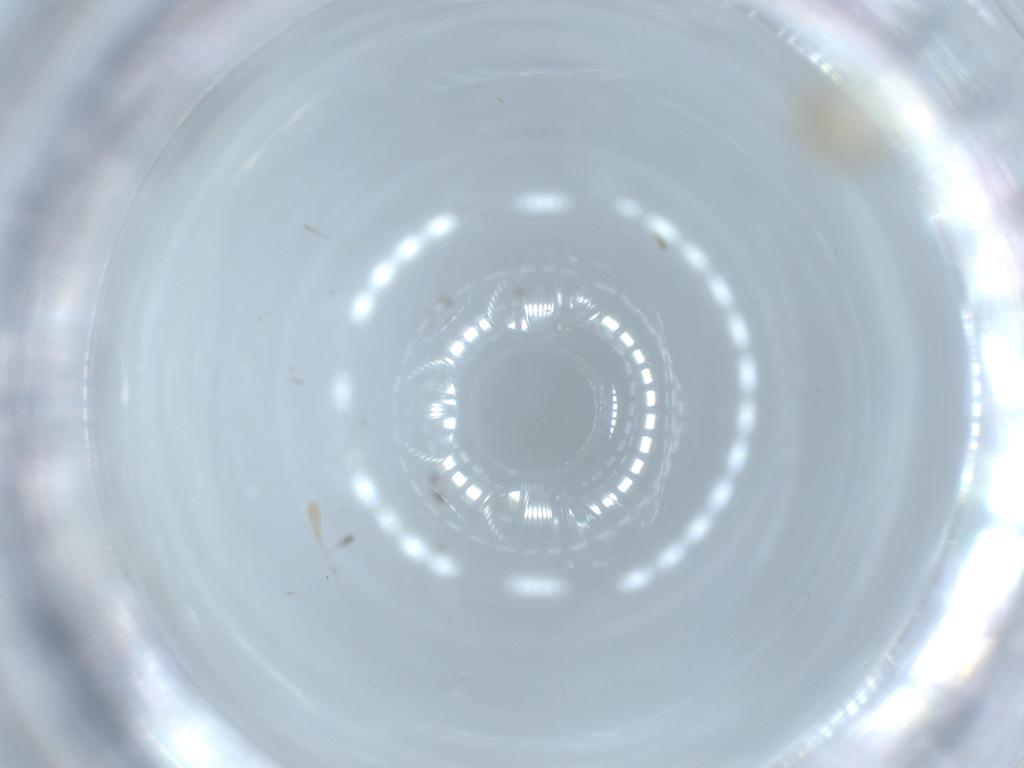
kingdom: Animalia
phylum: Arthropoda
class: Insecta
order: Hemiptera
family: Nogodinidae
